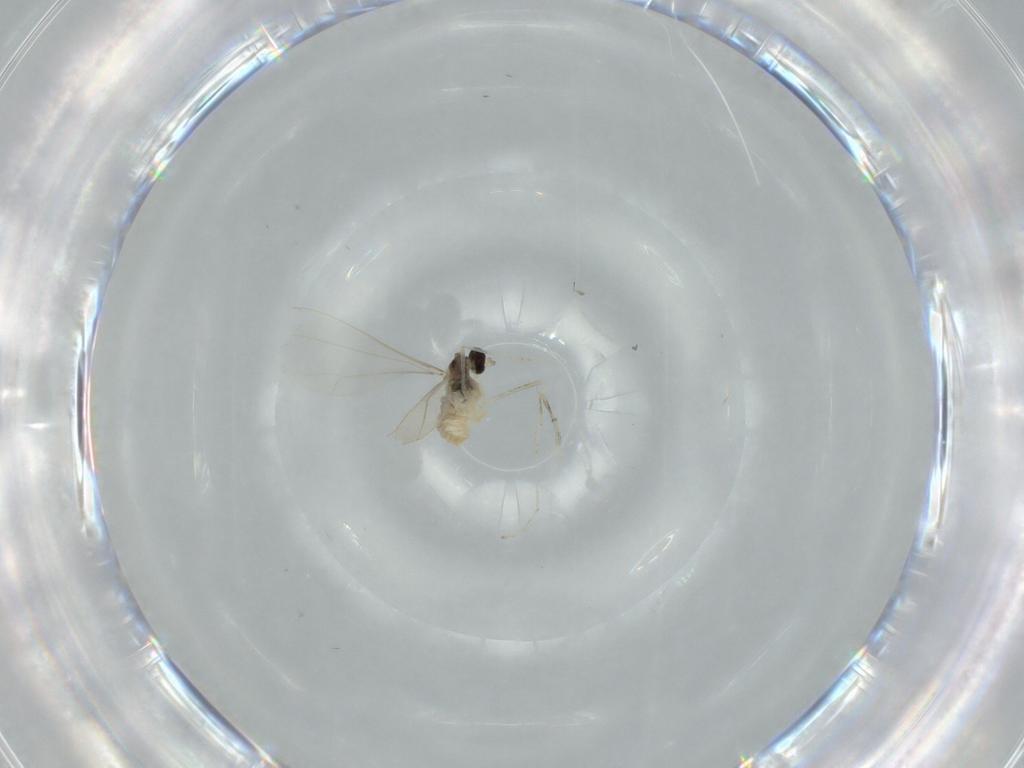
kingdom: Animalia
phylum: Arthropoda
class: Insecta
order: Diptera
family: Cecidomyiidae
